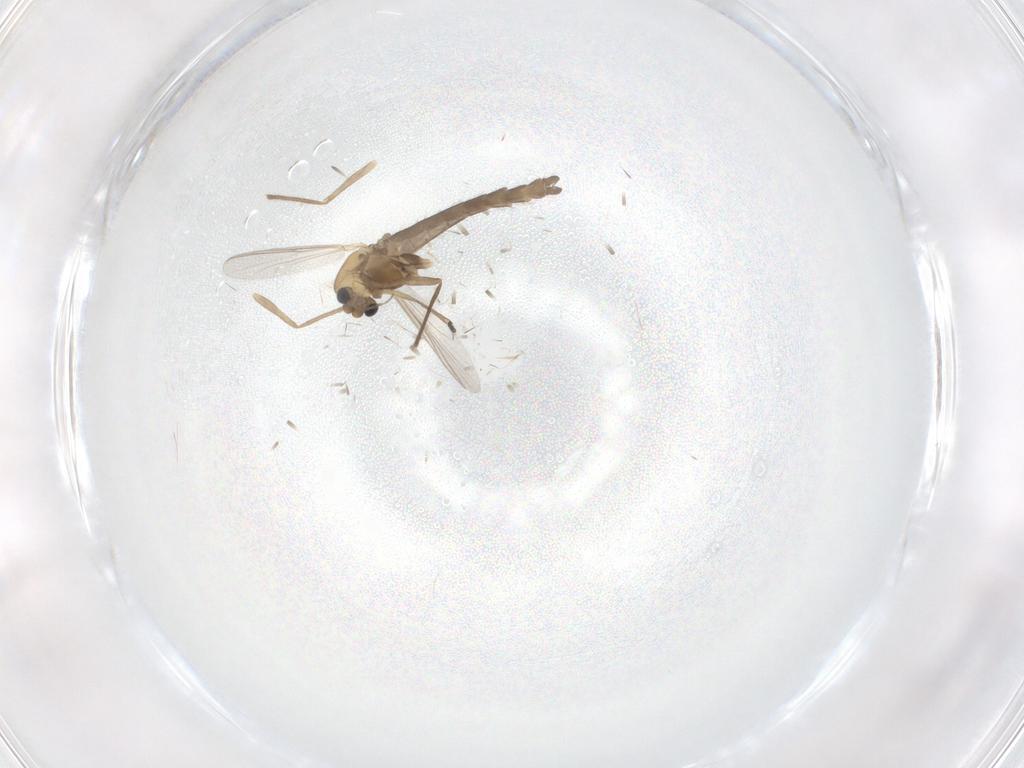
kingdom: Animalia
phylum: Arthropoda
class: Insecta
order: Diptera
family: Chironomidae
